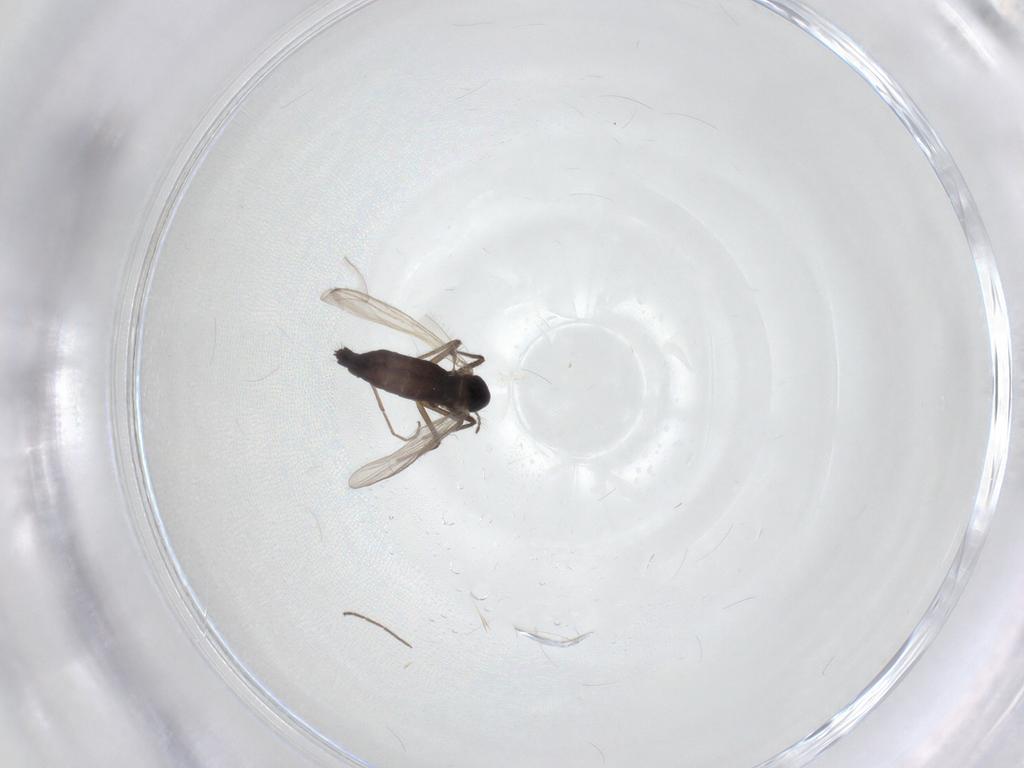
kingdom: Animalia
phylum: Arthropoda
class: Insecta
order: Diptera
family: Chironomidae
